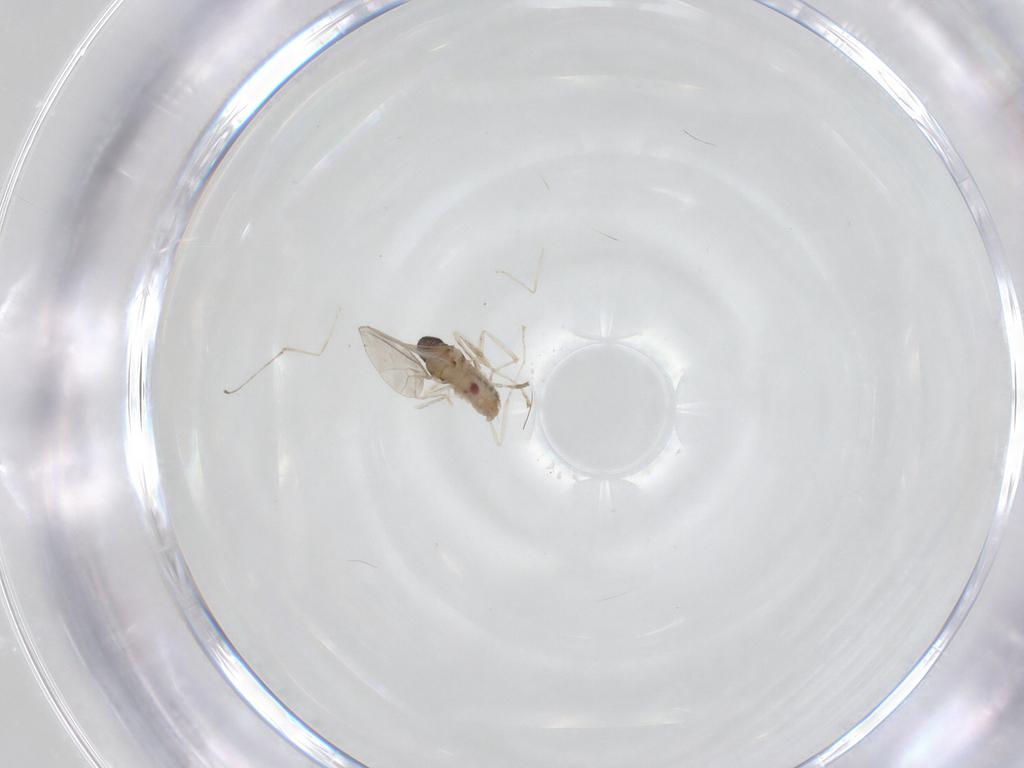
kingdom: Animalia
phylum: Arthropoda
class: Insecta
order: Diptera
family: Cecidomyiidae
